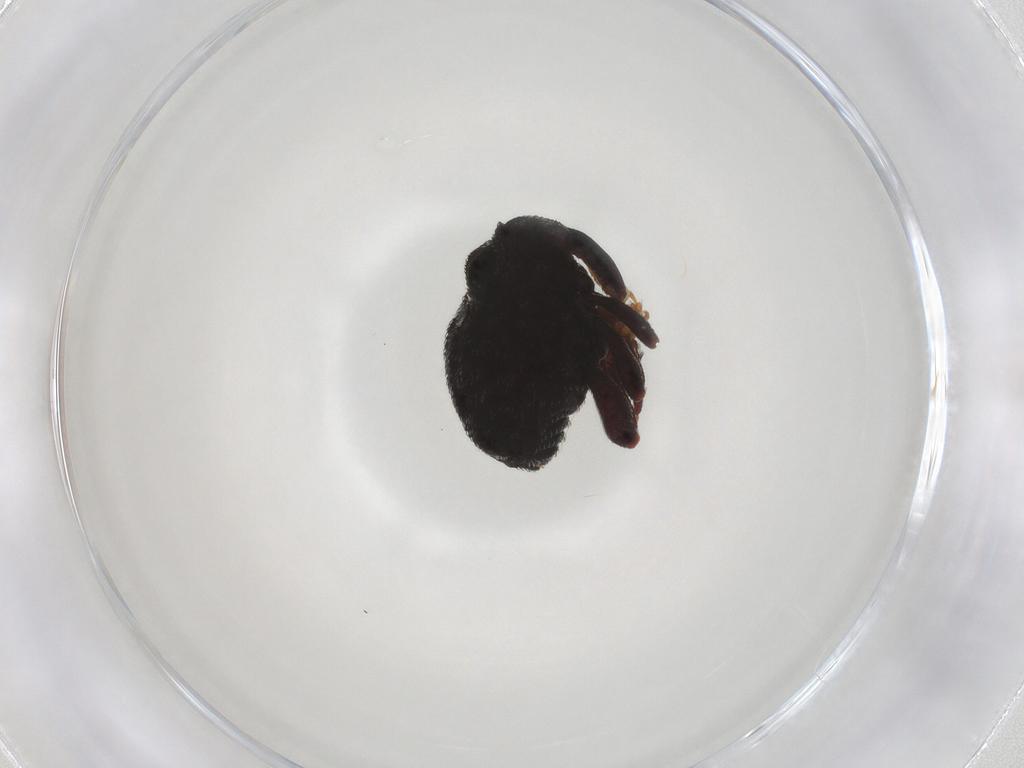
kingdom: Animalia
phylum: Arthropoda
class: Insecta
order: Coleoptera
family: Curculionidae
